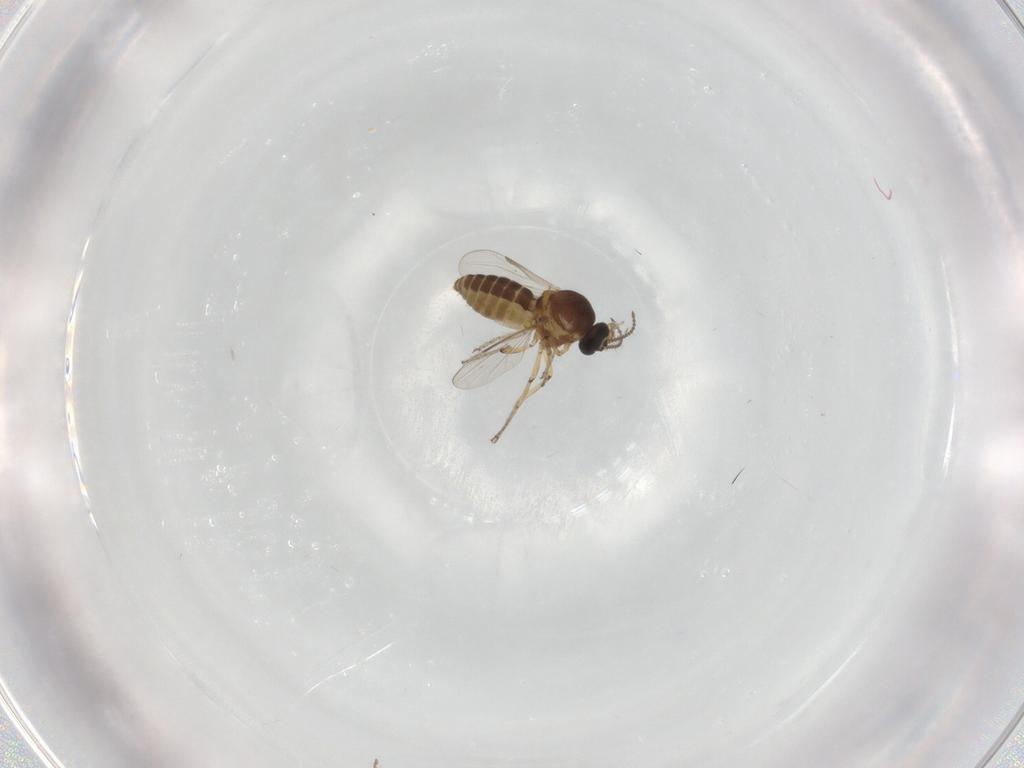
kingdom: Animalia
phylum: Arthropoda
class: Insecta
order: Diptera
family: Ceratopogonidae
